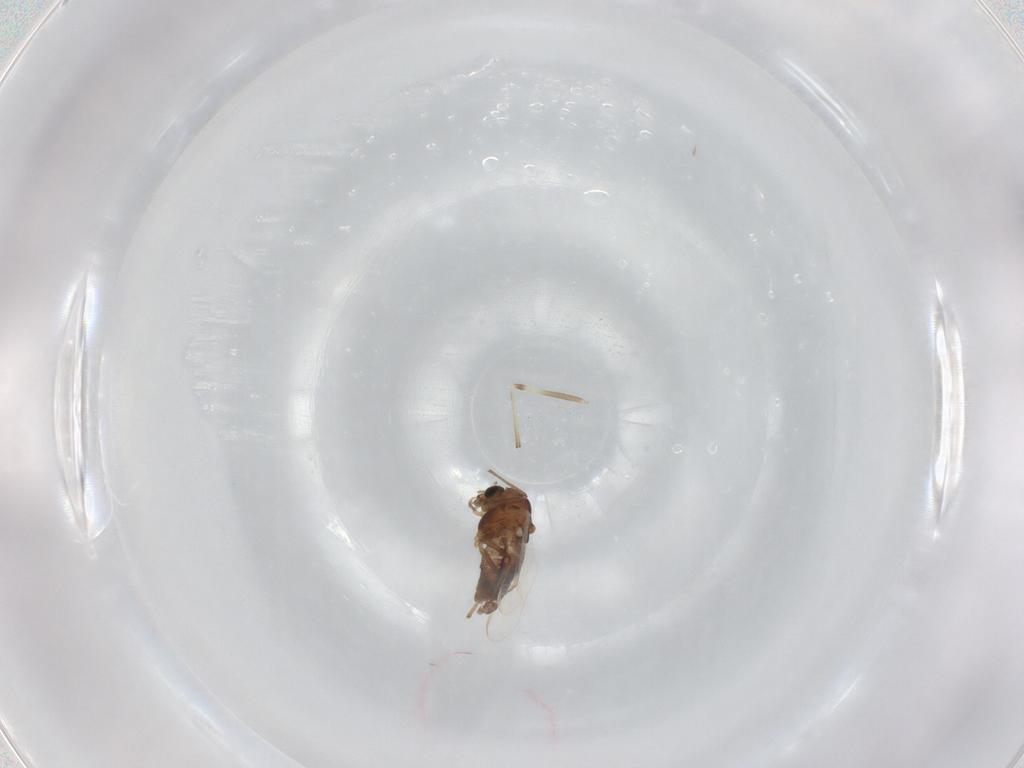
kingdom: Animalia
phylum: Arthropoda
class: Insecta
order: Diptera
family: Chironomidae
